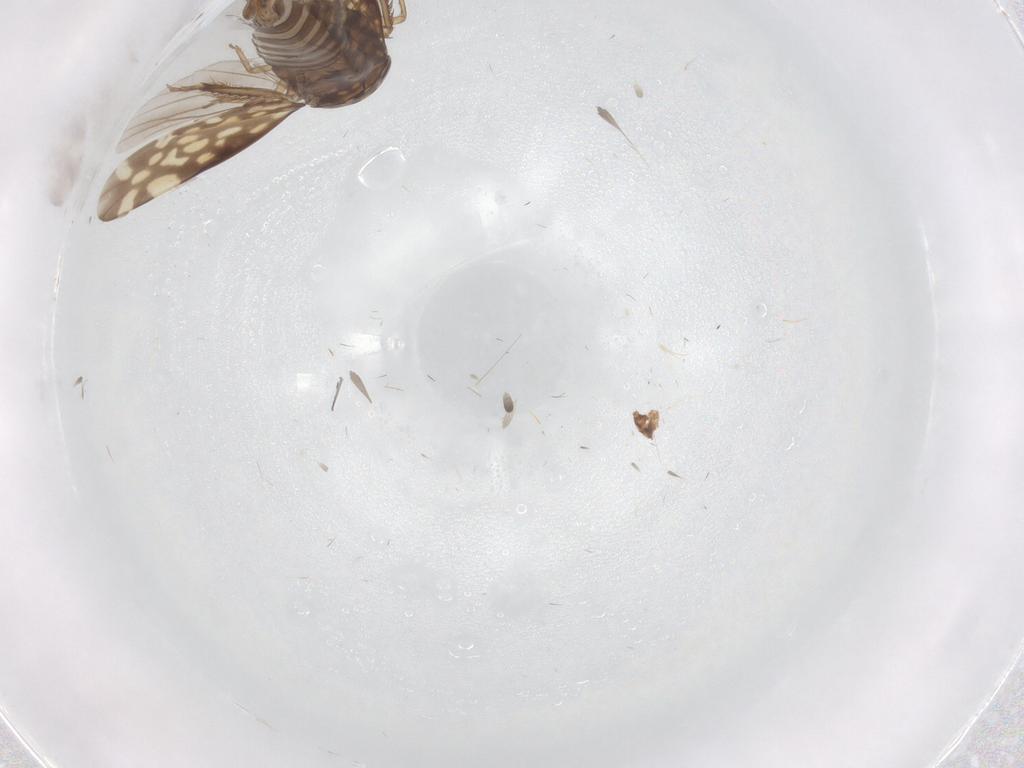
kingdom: Animalia
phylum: Arthropoda
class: Insecta
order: Hemiptera
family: Cicadellidae
